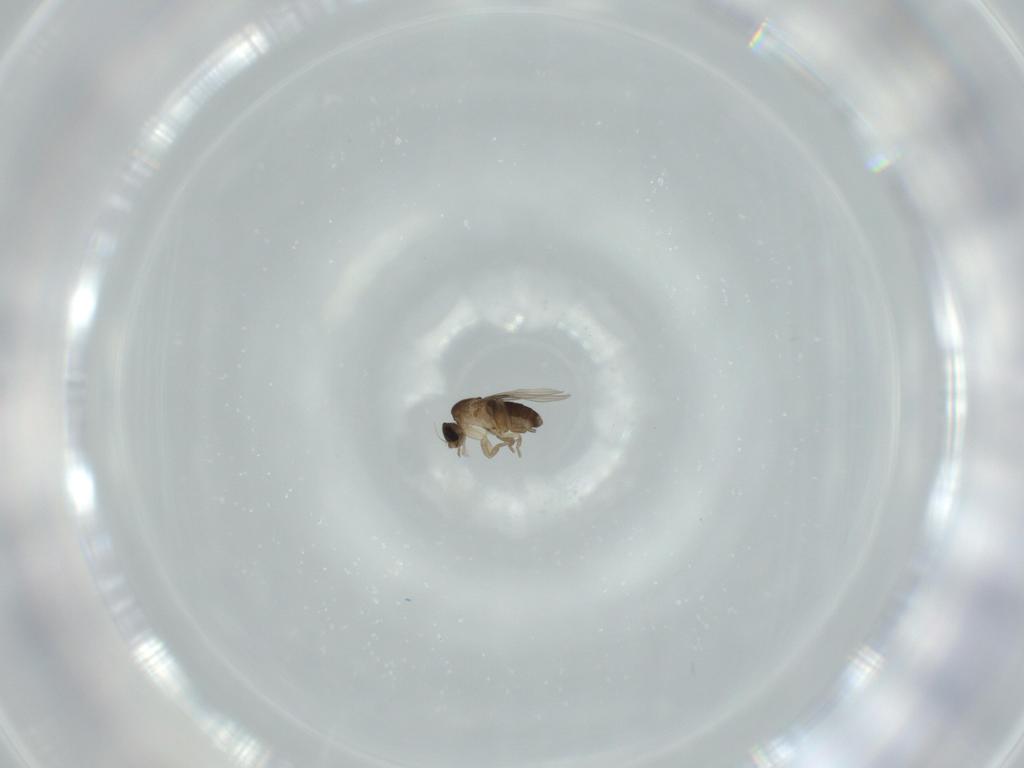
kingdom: Animalia
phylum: Arthropoda
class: Insecta
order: Diptera
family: Phoridae
